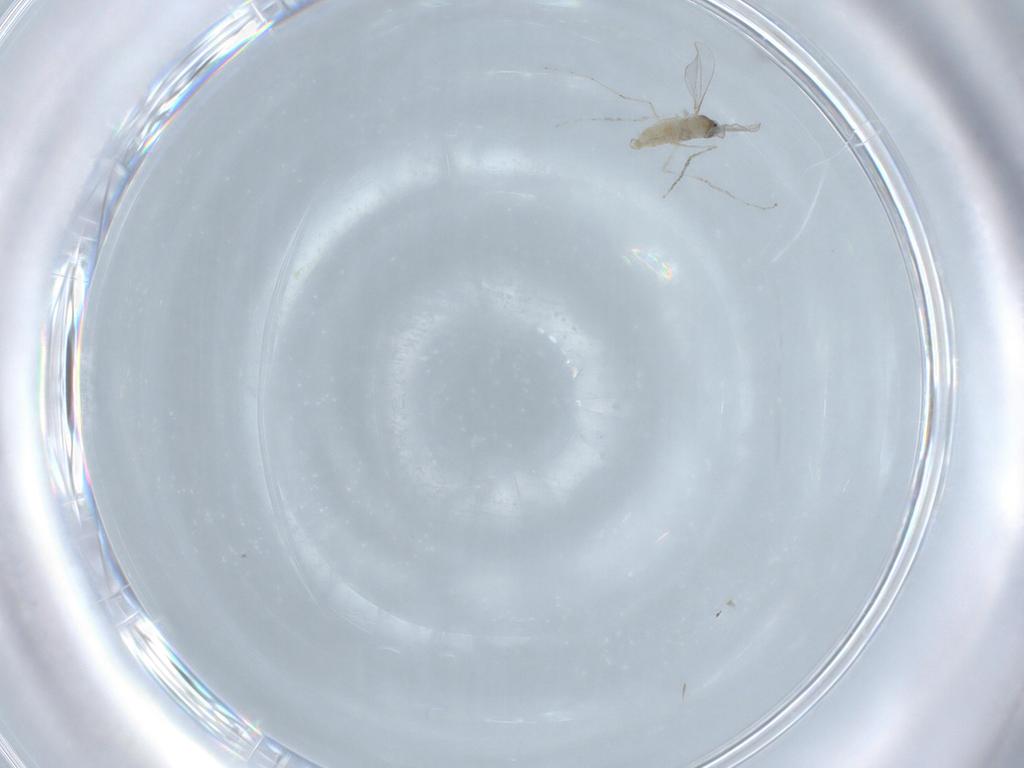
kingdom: Animalia
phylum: Arthropoda
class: Insecta
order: Diptera
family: Cecidomyiidae
